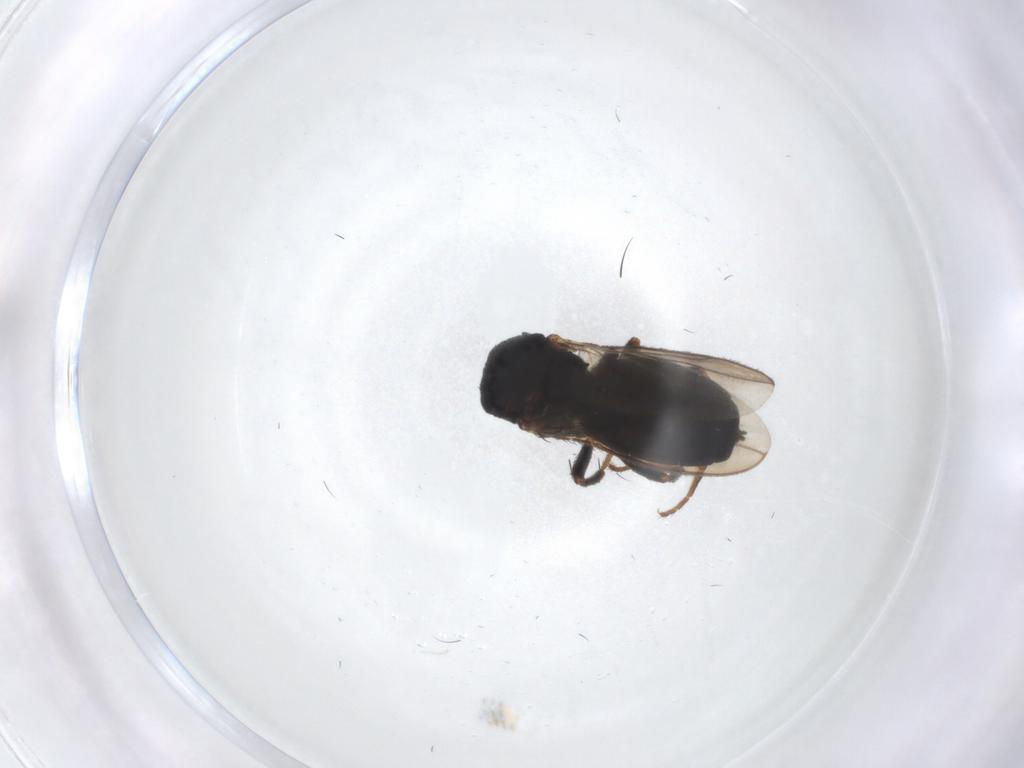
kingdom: Animalia
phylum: Arthropoda
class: Insecta
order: Diptera
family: Sphaeroceridae
